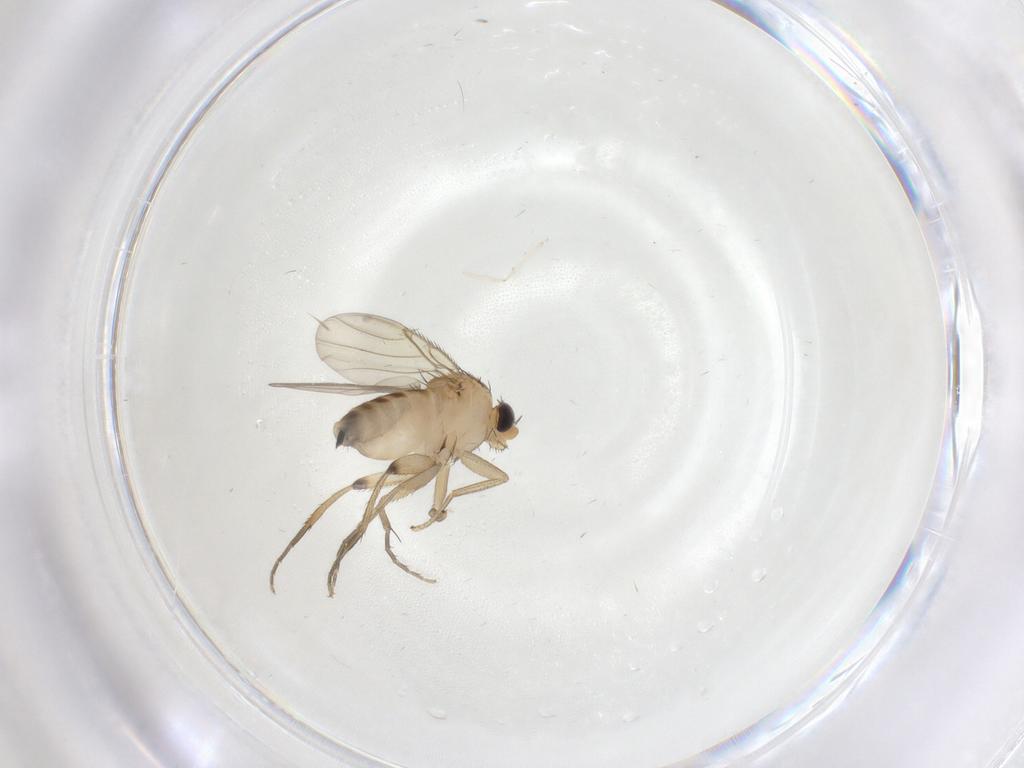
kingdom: Animalia
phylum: Arthropoda
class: Insecta
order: Diptera
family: Phoridae
